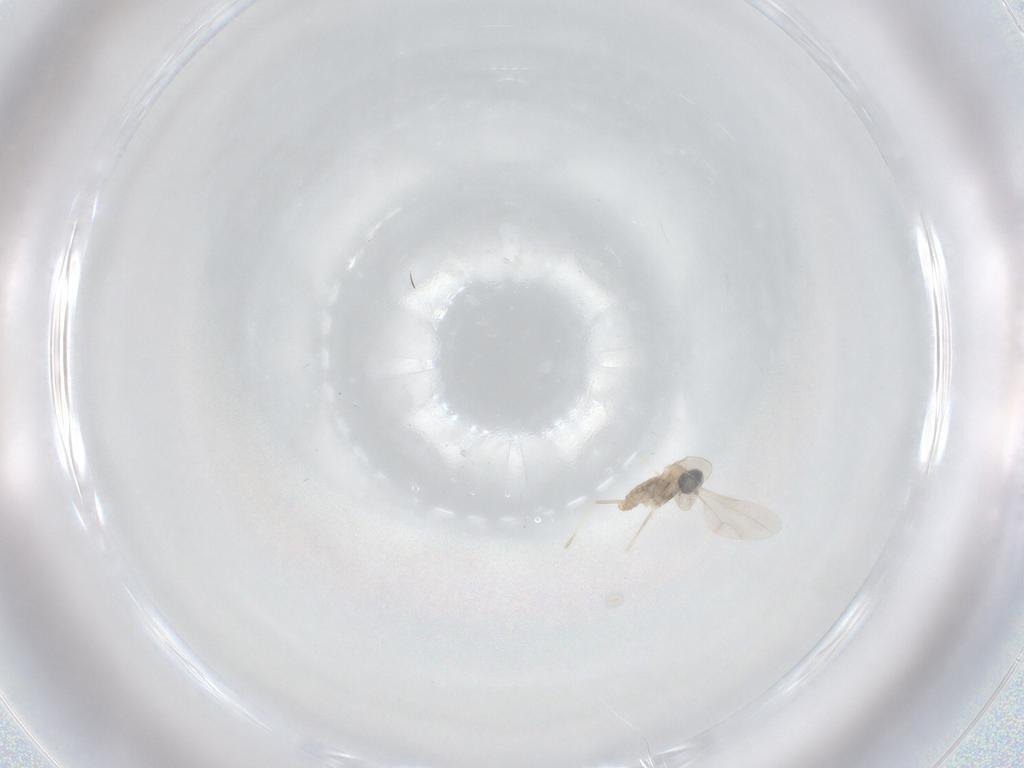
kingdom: Animalia
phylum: Arthropoda
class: Insecta
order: Diptera
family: Cecidomyiidae
